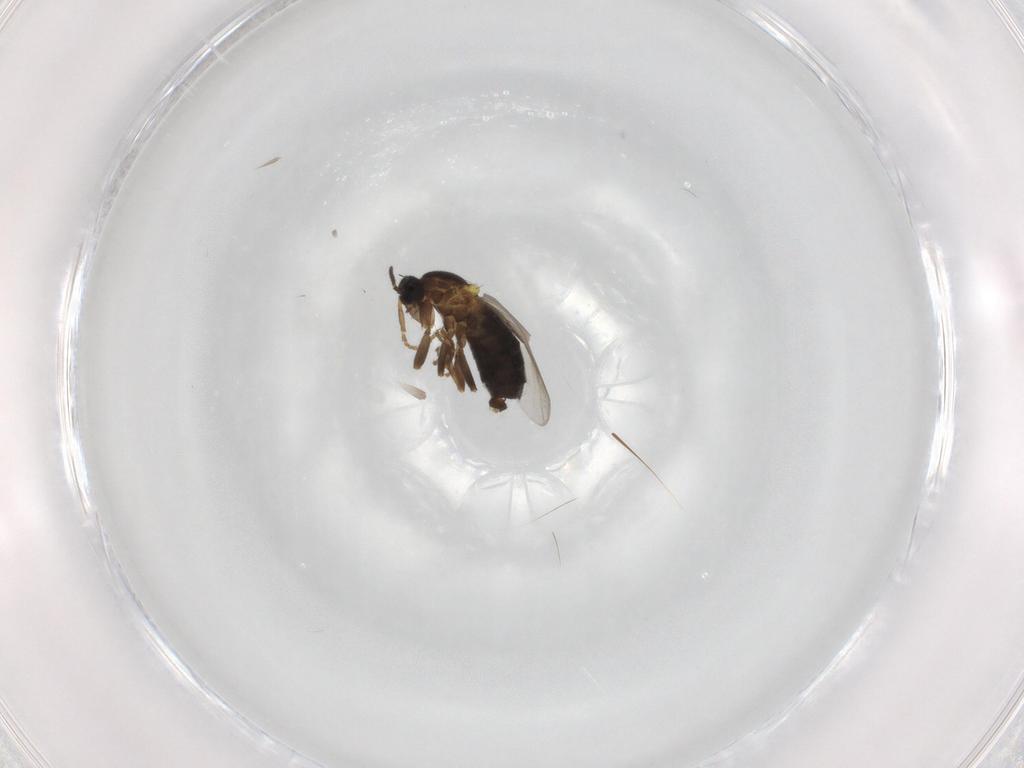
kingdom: Animalia
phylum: Arthropoda
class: Insecta
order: Diptera
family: Scatopsidae
